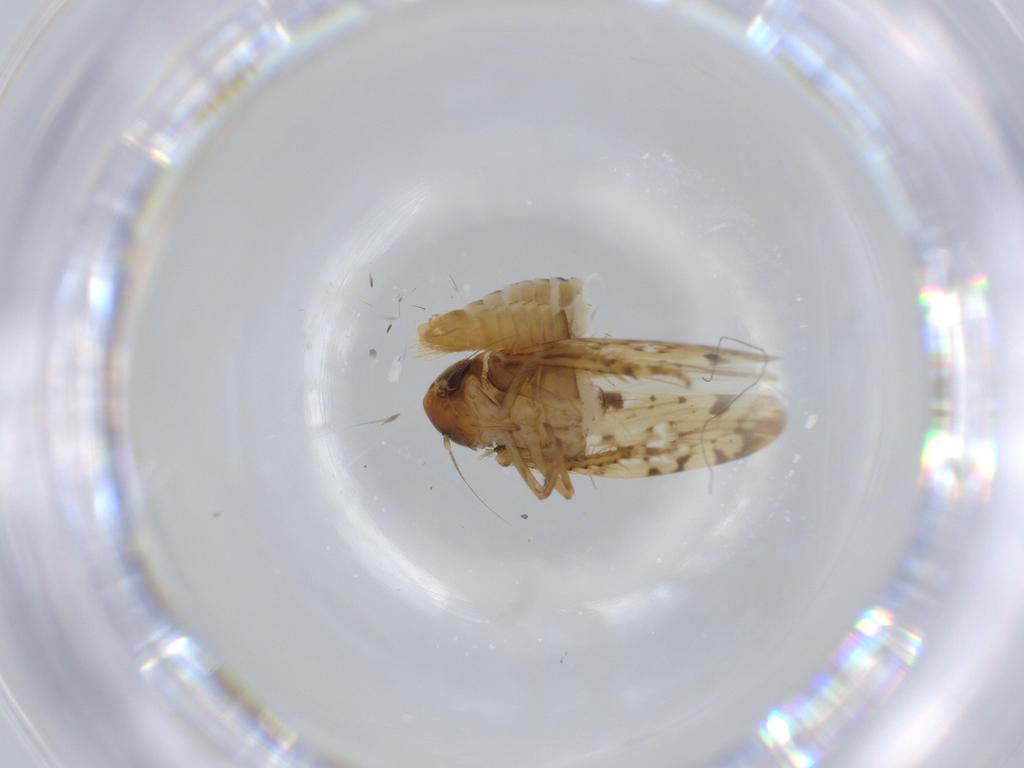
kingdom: Animalia
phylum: Arthropoda
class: Insecta
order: Hemiptera
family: Cicadellidae
